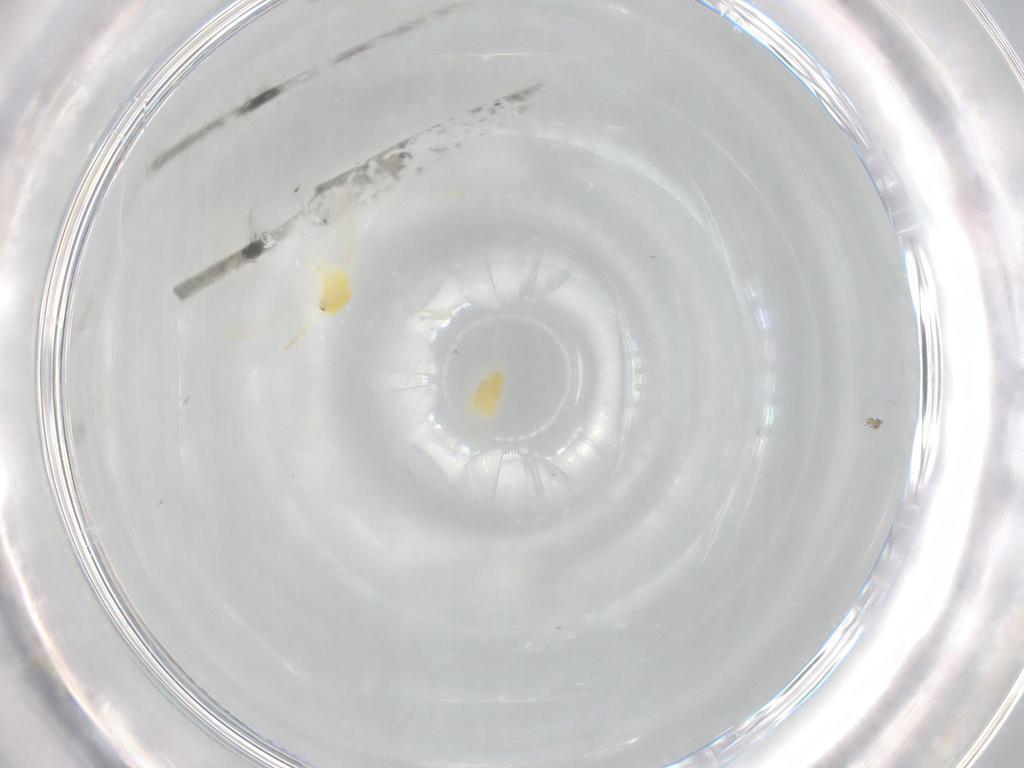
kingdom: Animalia
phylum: Arthropoda
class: Insecta
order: Hemiptera
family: Aleyrodidae
